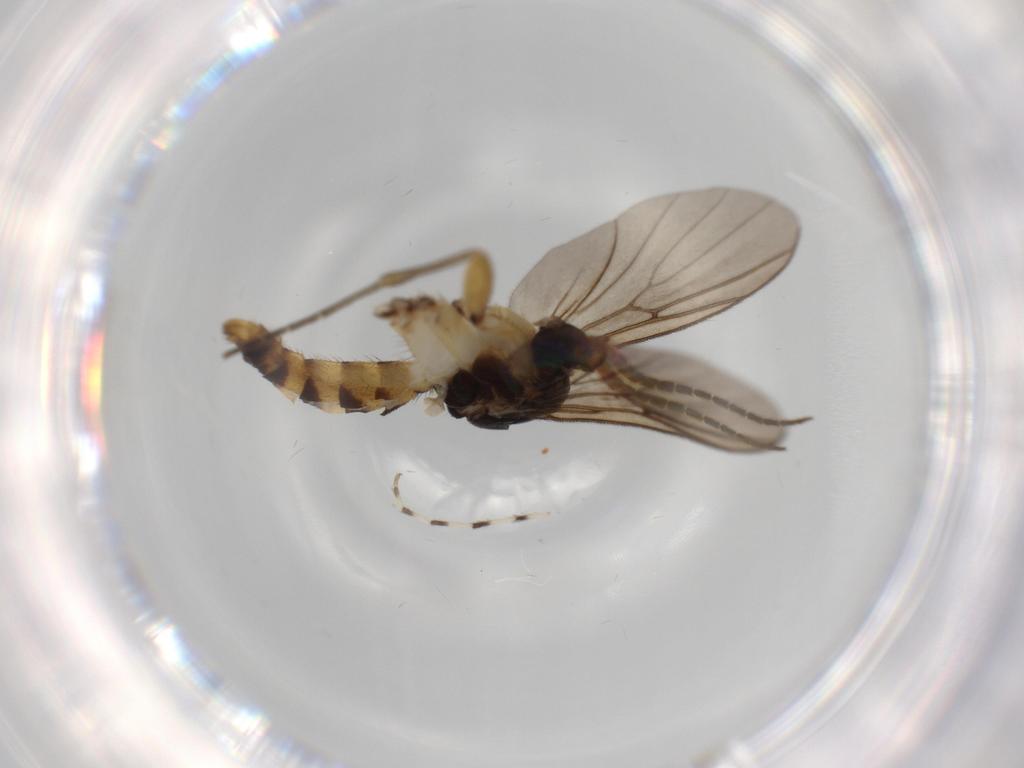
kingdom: Animalia
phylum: Arthropoda
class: Insecta
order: Diptera
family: Limoniidae
